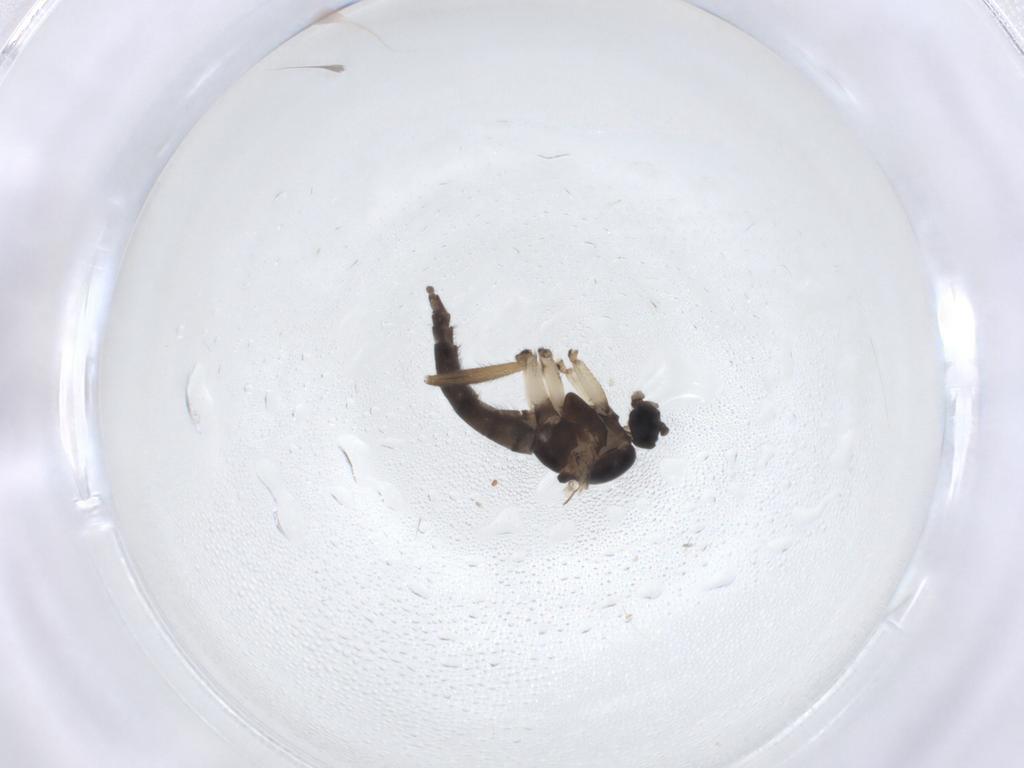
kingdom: Animalia
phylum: Arthropoda
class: Insecta
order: Diptera
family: Sciaridae
